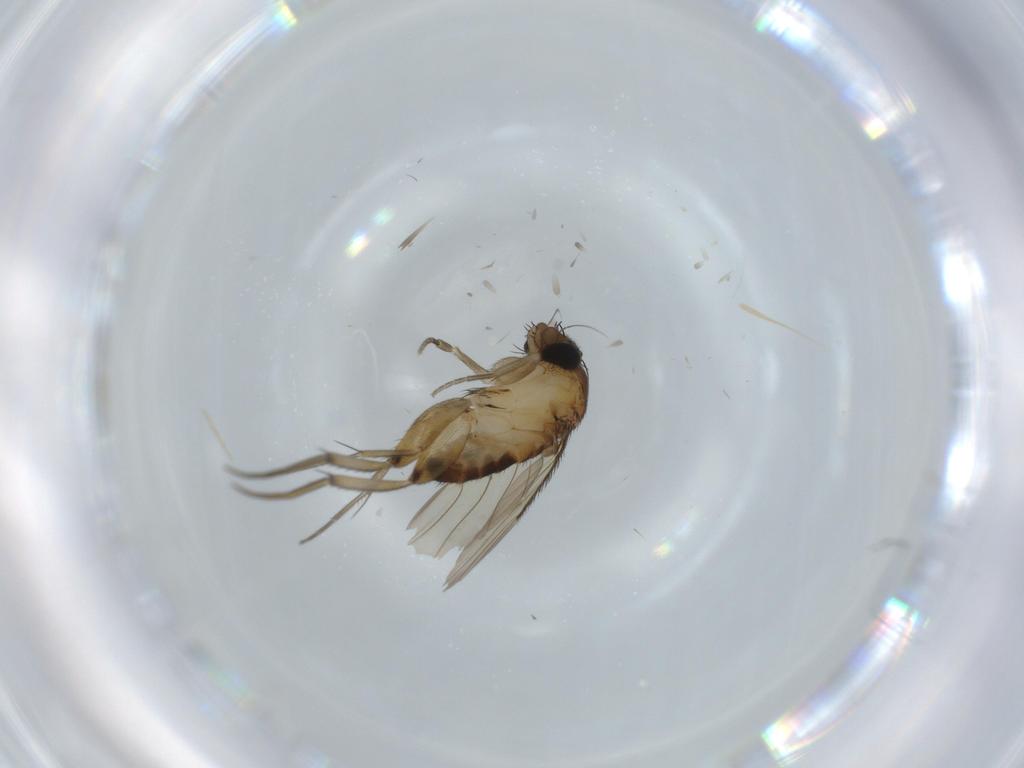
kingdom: Animalia
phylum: Arthropoda
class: Insecta
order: Diptera
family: Phoridae
